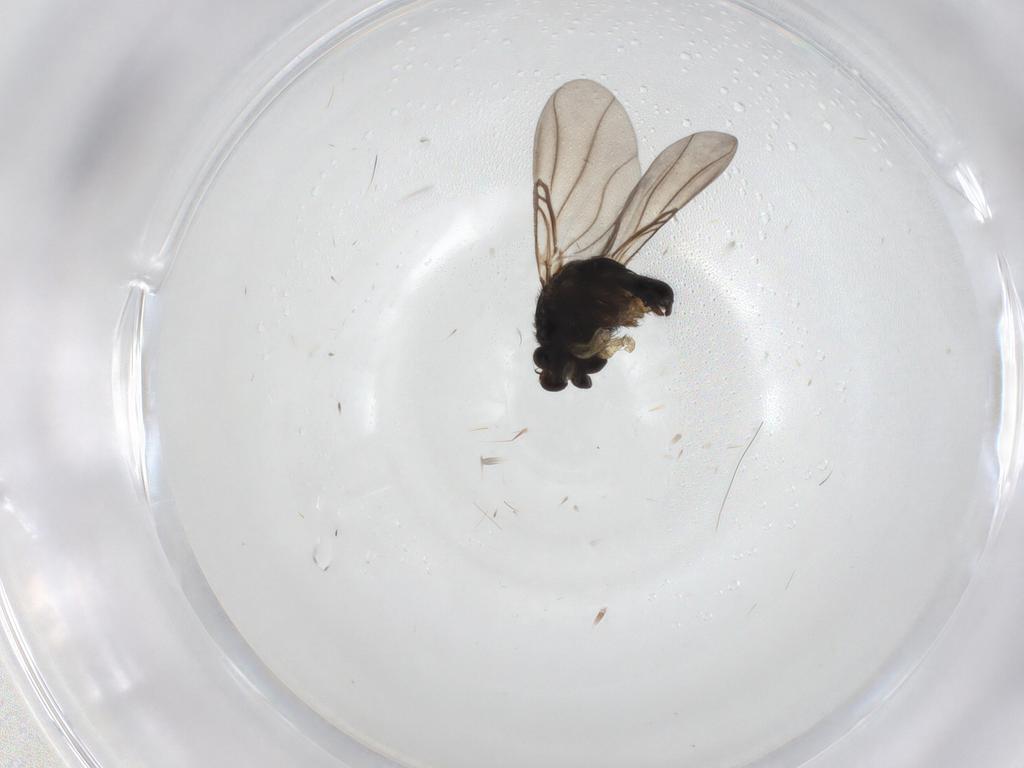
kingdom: Animalia
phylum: Arthropoda
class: Insecta
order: Diptera
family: Phoridae
